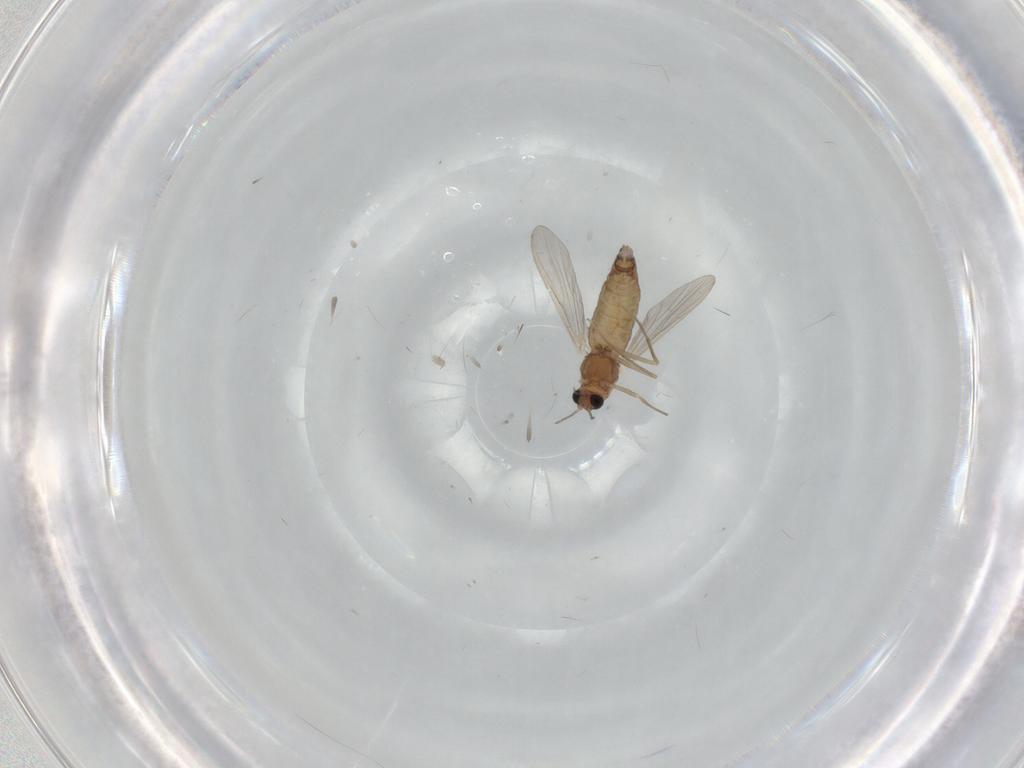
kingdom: Animalia
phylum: Arthropoda
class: Insecta
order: Diptera
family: Chironomidae
